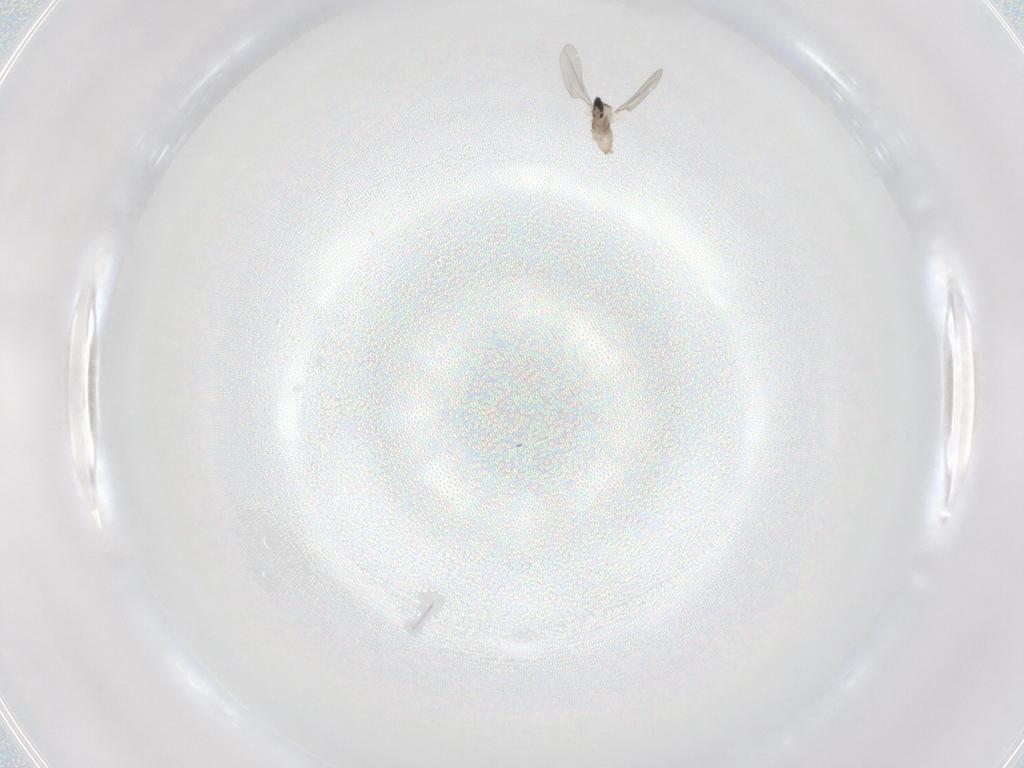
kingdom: Animalia
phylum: Arthropoda
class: Insecta
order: Diptera
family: Cecidomyiidae
